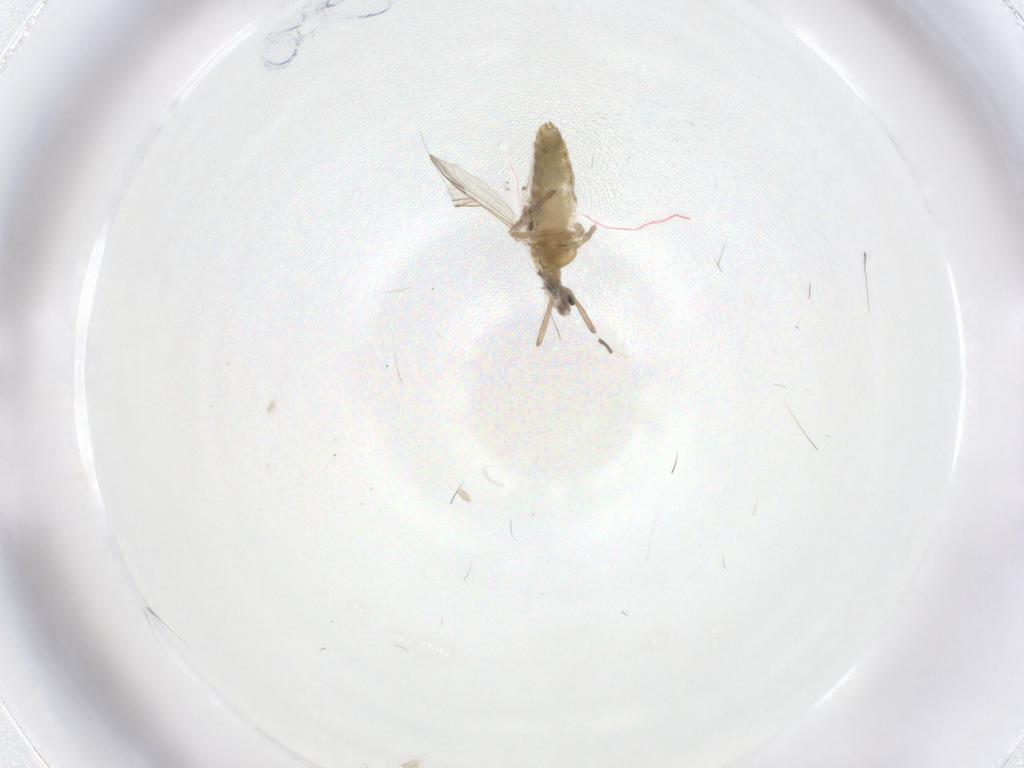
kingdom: Animalia
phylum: Arthropoda
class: Insecta
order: Diptera
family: Chironomidae
